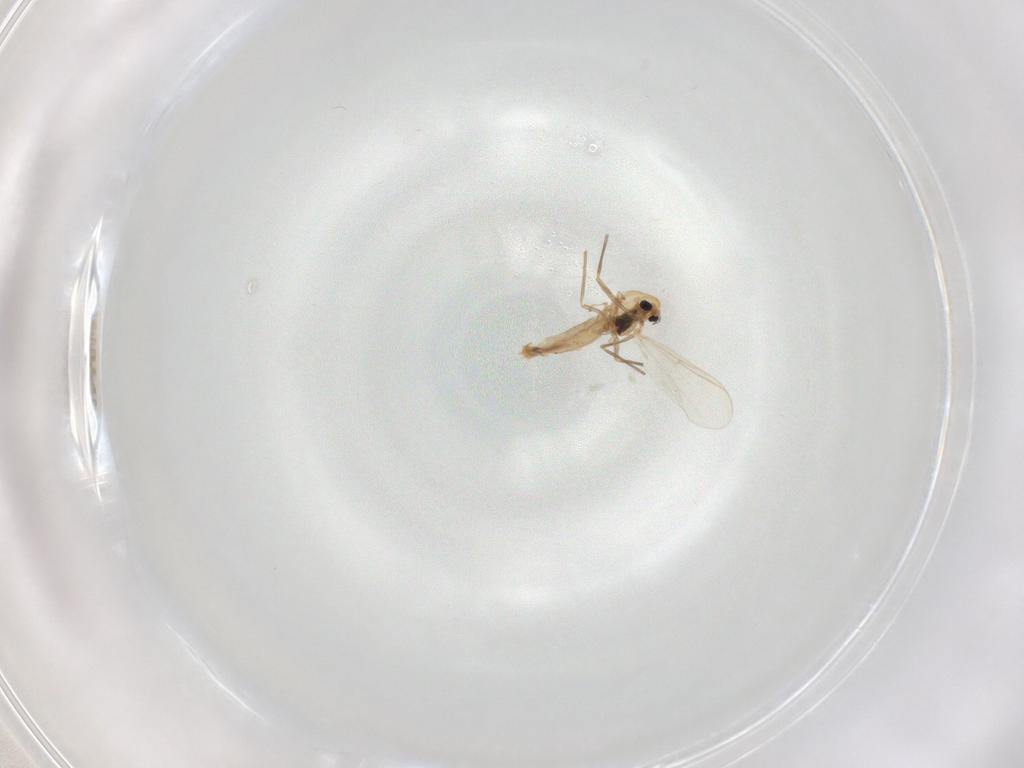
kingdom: Animalia
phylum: Arthropoda
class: Insecta
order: Diptera
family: Chironomidae
